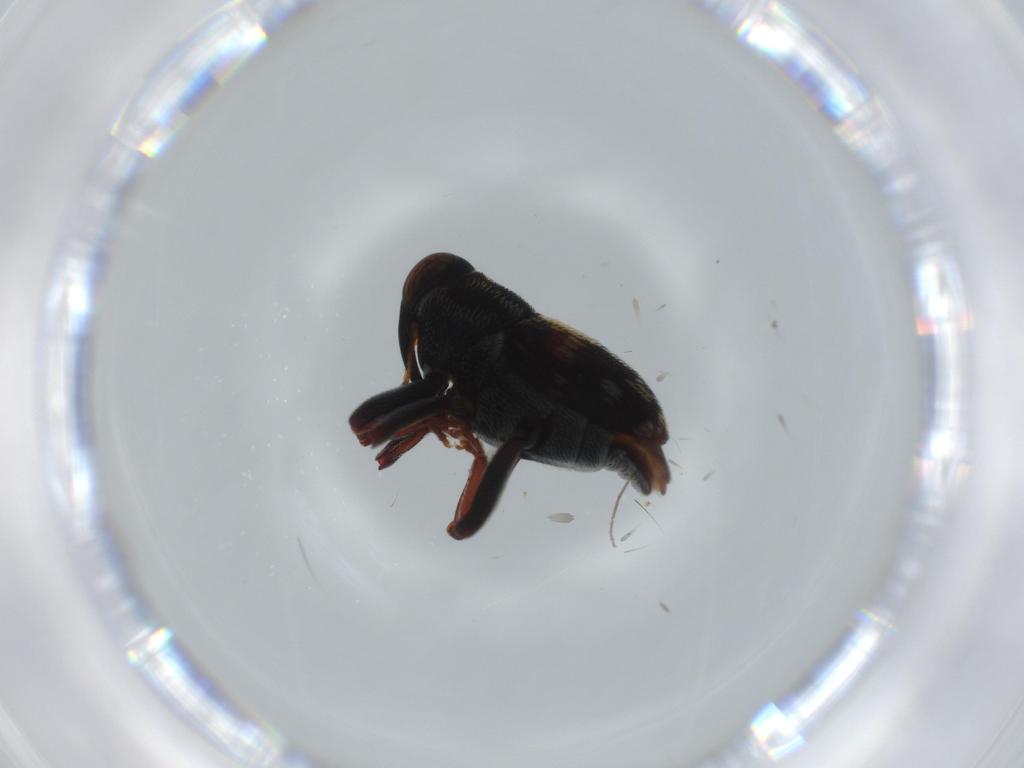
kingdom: Animalia
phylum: Arthropoda
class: Insecta
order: Coleoptera
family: Curculionidae
